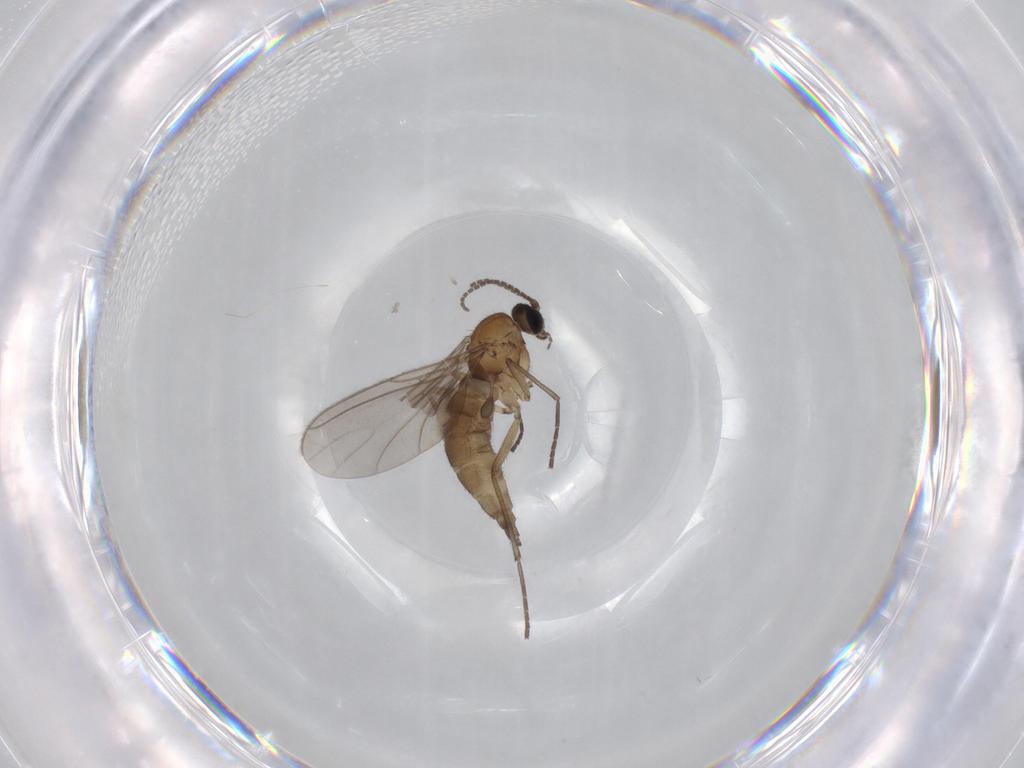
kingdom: Animalia
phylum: Arthropoda
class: Insecta
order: Diptera
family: Sciaridae
